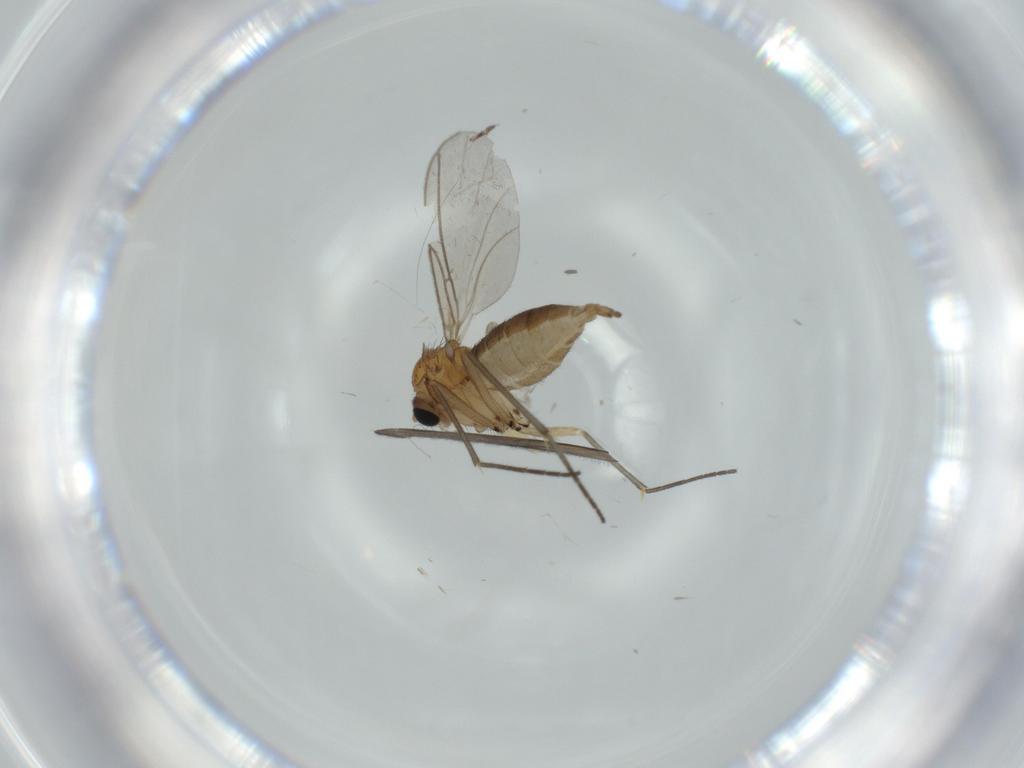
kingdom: Animalia
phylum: Arthropoda
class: Insecta
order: Diptera
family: Sciaridae
